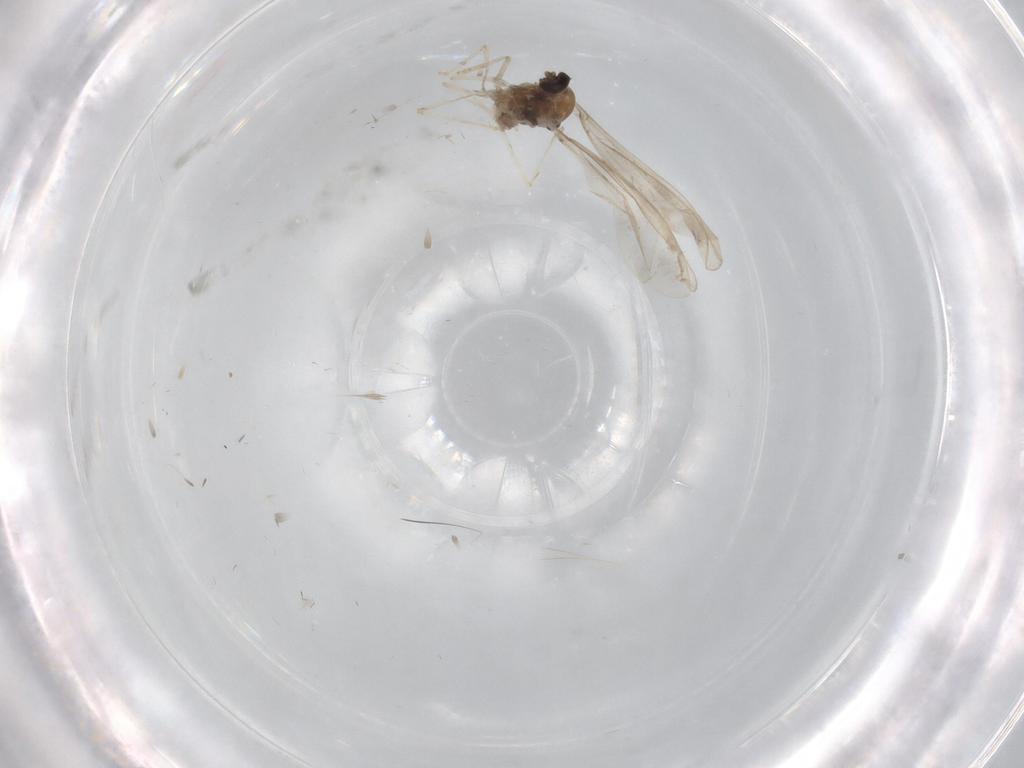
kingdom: Animalia
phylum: Arthropoda
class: Insecta
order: Diptera
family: Cecidomyiidae
